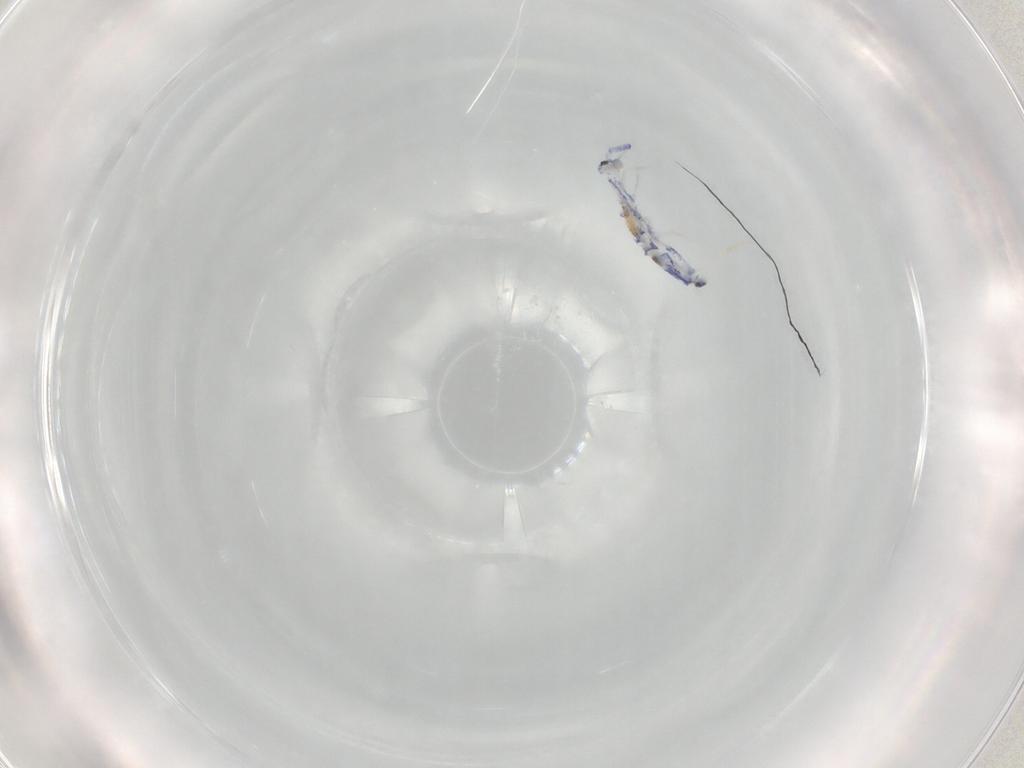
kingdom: Animalia
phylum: Arthropoda
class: Collembola
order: Entomobryomorpha
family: Entomobryidae
